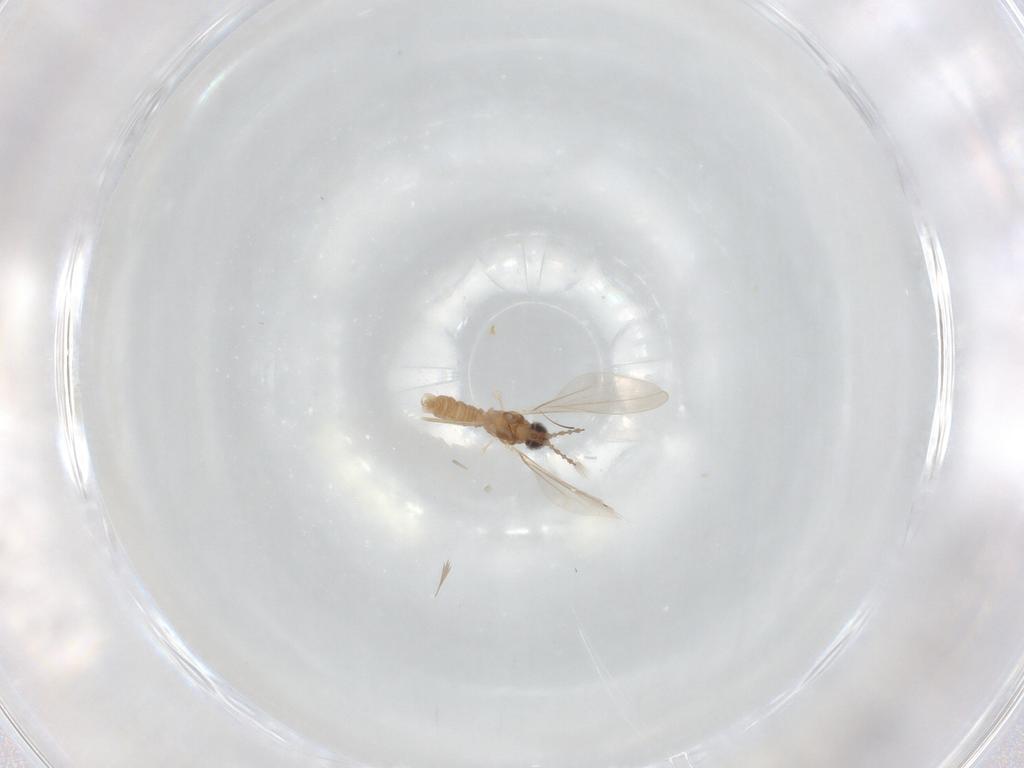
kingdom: Animalia
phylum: Arthropoda
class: Insecta
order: Diptera
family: Cecidomyiidae
